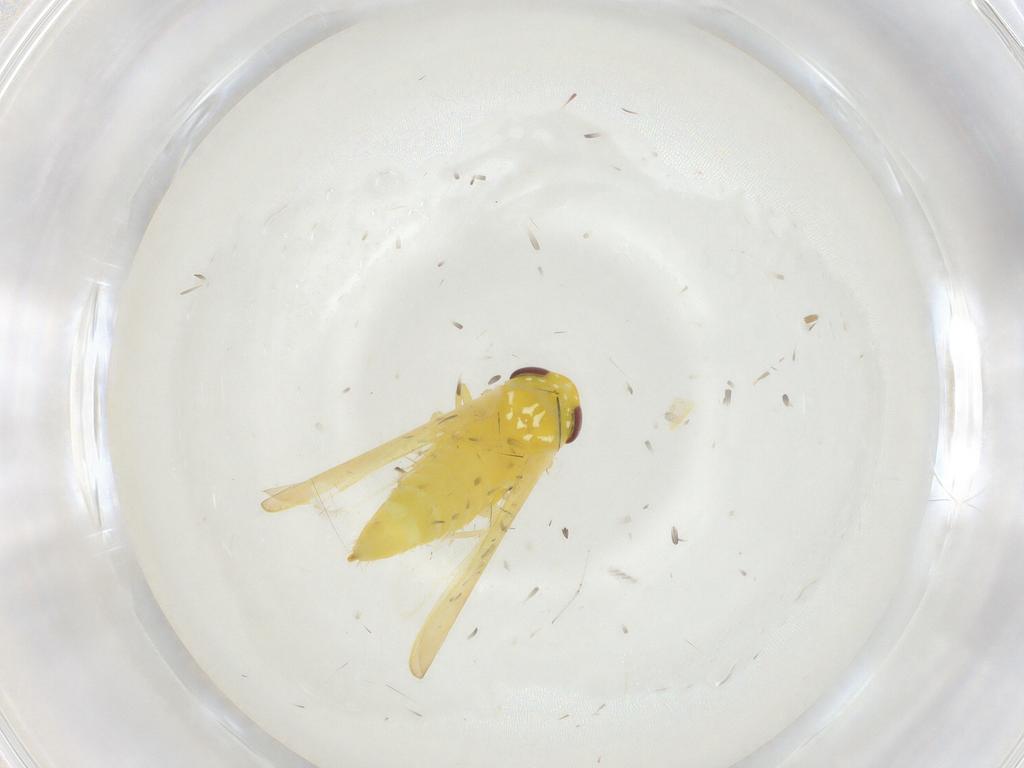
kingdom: Animalia
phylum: Arthropoda
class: Insecta
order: Hemiptera
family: Cicadellidae
